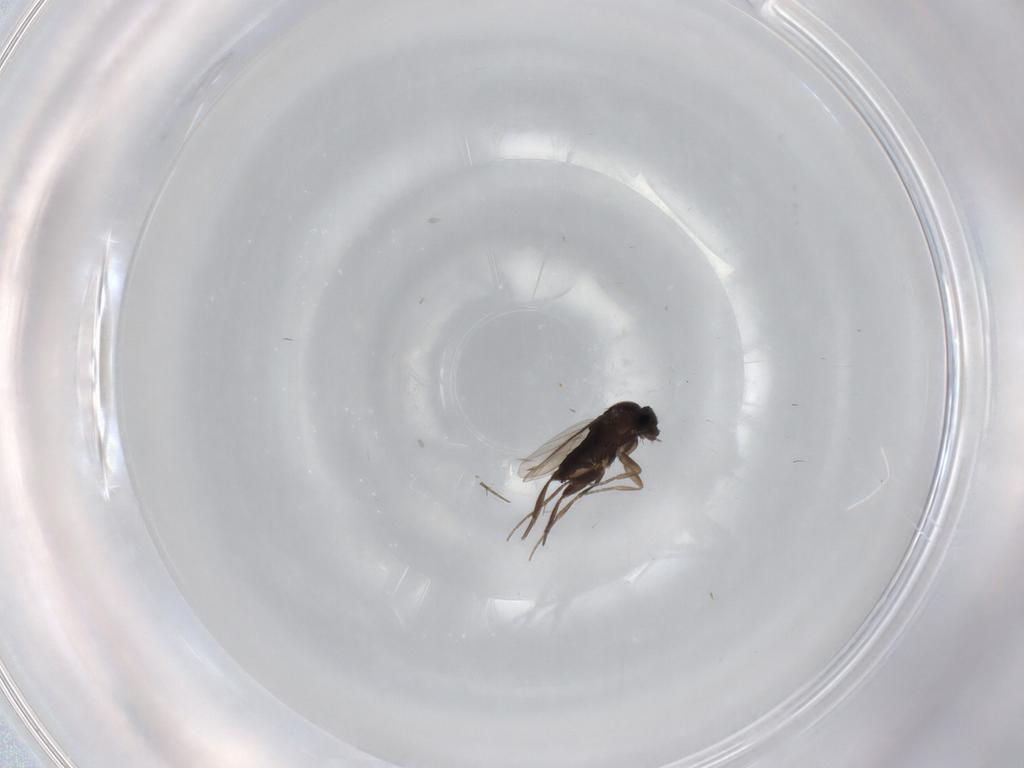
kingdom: Animalia
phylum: Arthropoda
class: Insecta
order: Diptera
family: Phoridae
